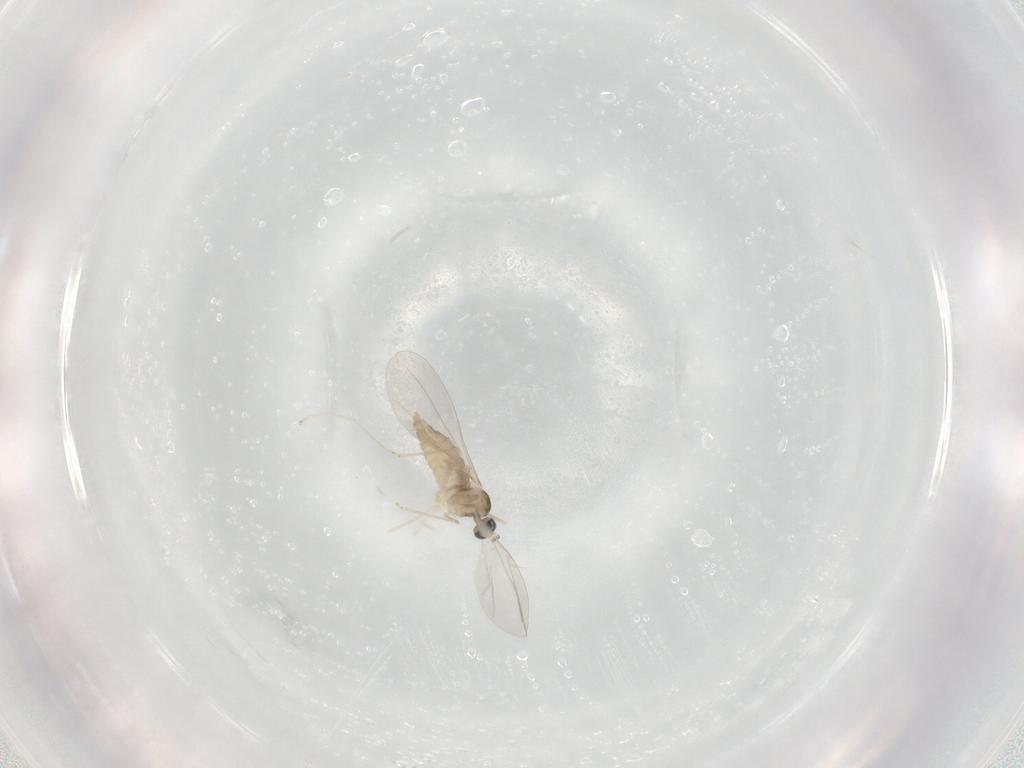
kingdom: Animalia
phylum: Arthropoda
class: Insecta
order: Diptera
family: Cecidomyiidae
